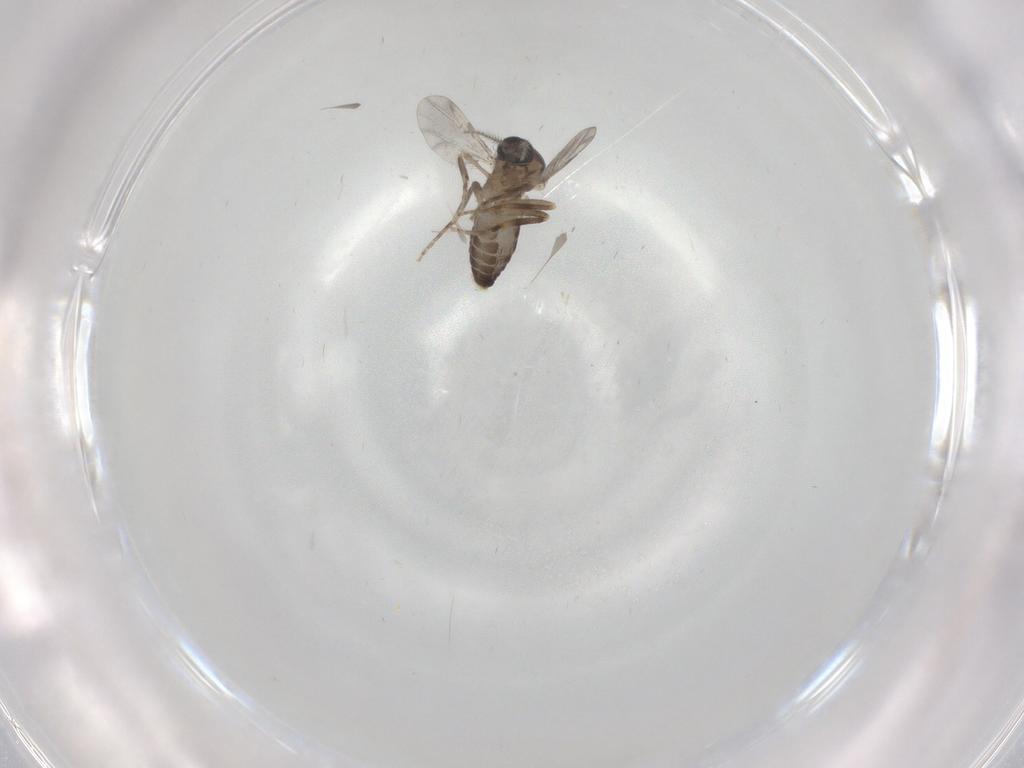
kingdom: Animalia
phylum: Arthropoda
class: Insecta
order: Diptera
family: Ceratopogonidae
